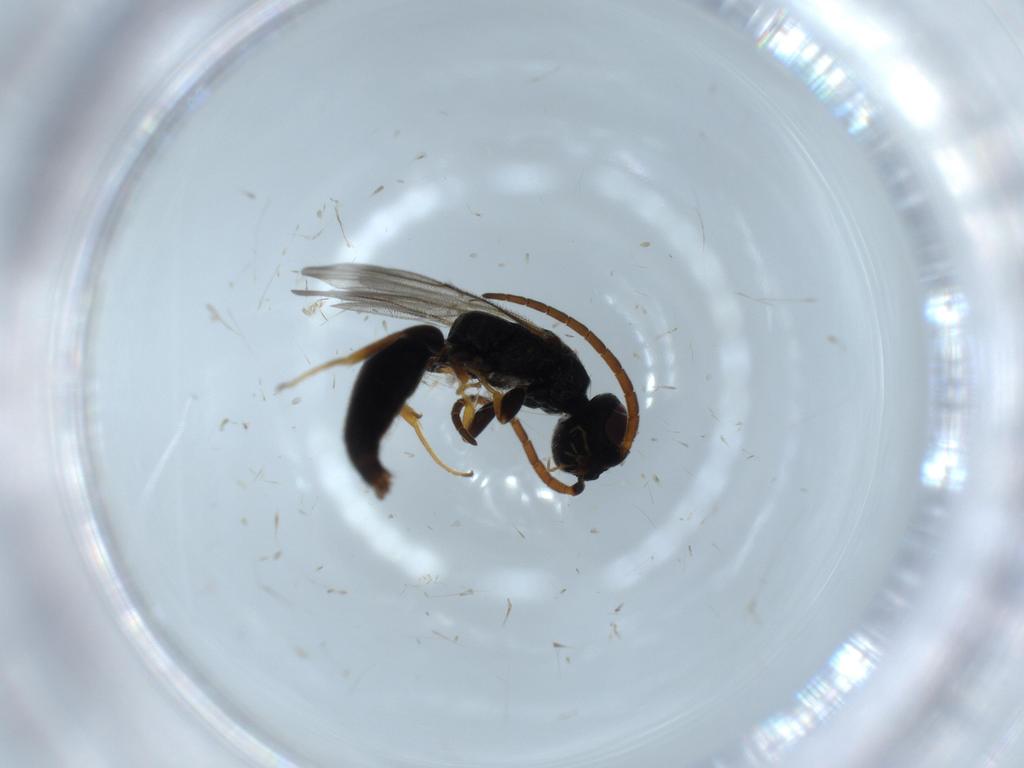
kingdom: Animalia
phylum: Arthropoda
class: Insecta
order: Hymenoptera
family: Bethylidae
